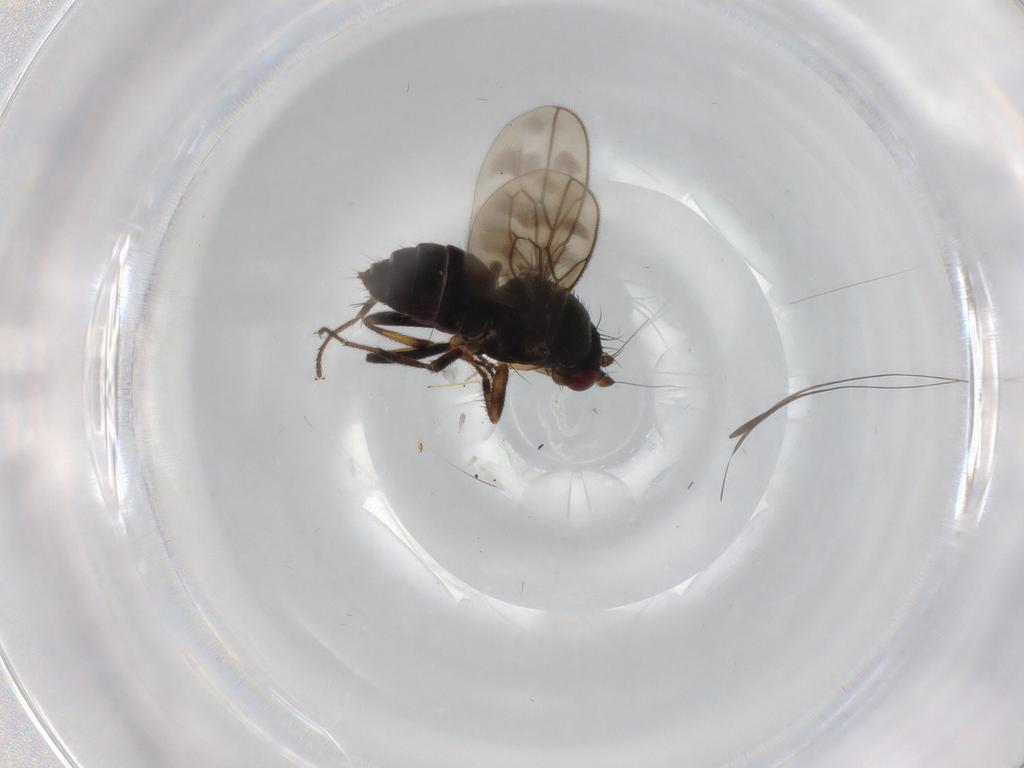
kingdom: Animalia
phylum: Arthropoda
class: Insecta
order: Diptera
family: Sphaeroceridae
